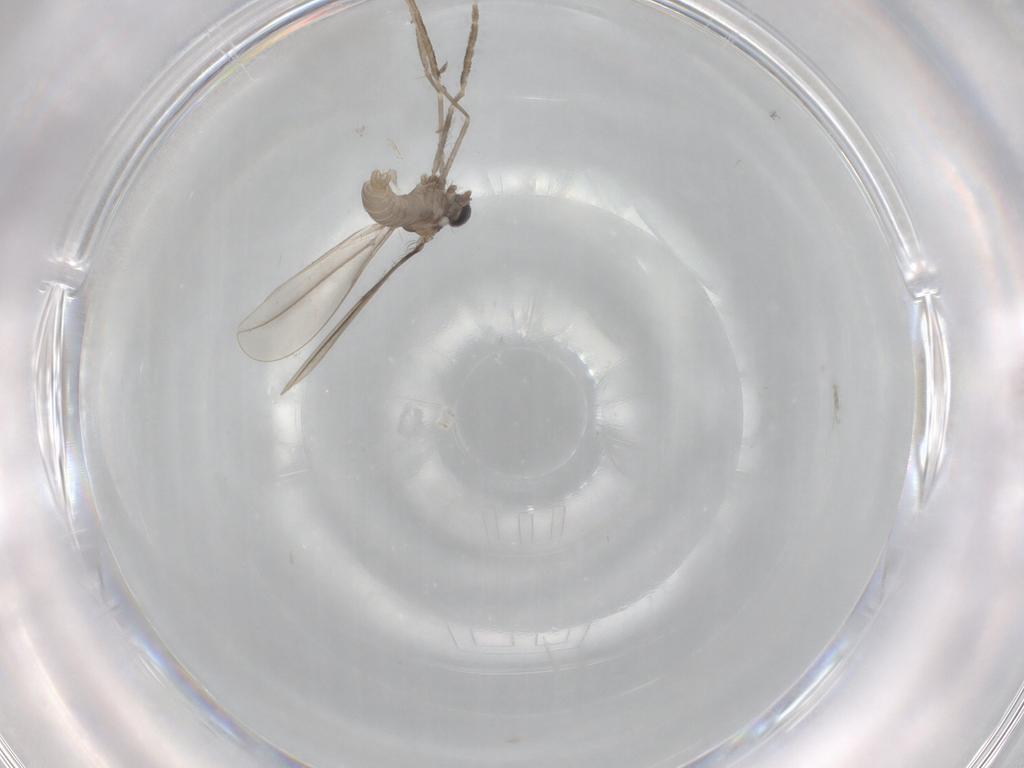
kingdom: Animalia
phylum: Arthropoda
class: Insecta
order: Diptera
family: Cecidomyiidae
